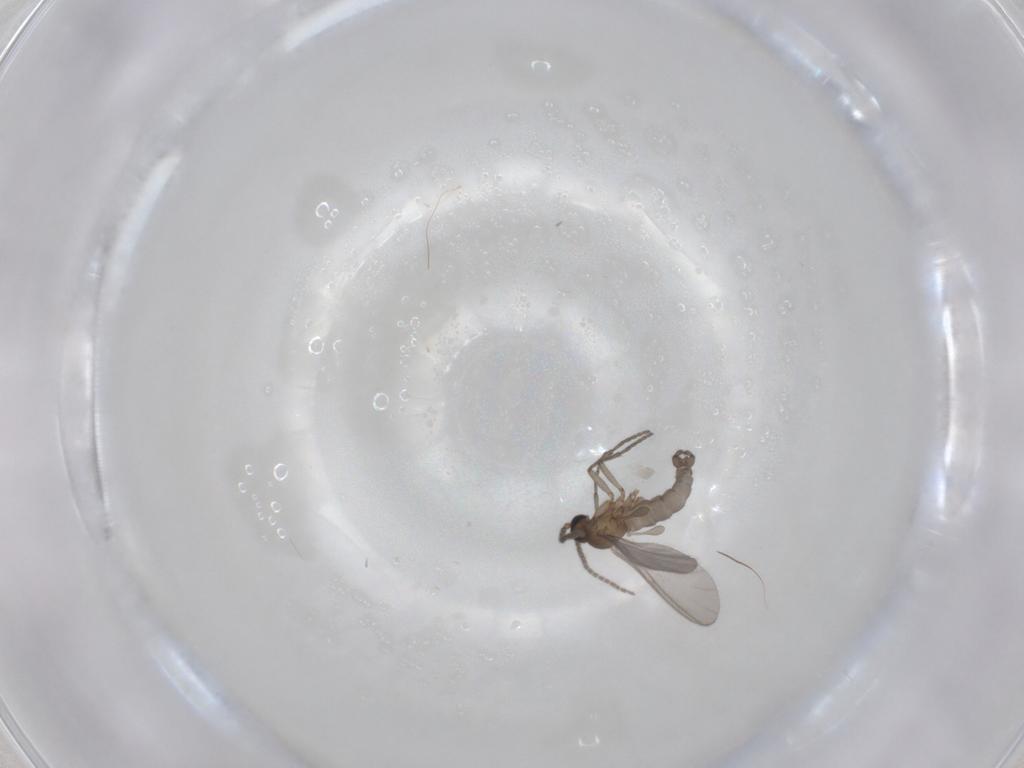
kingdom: Animalia
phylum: Arthropoda
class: Insecta
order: Diptera
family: Sciaridae
